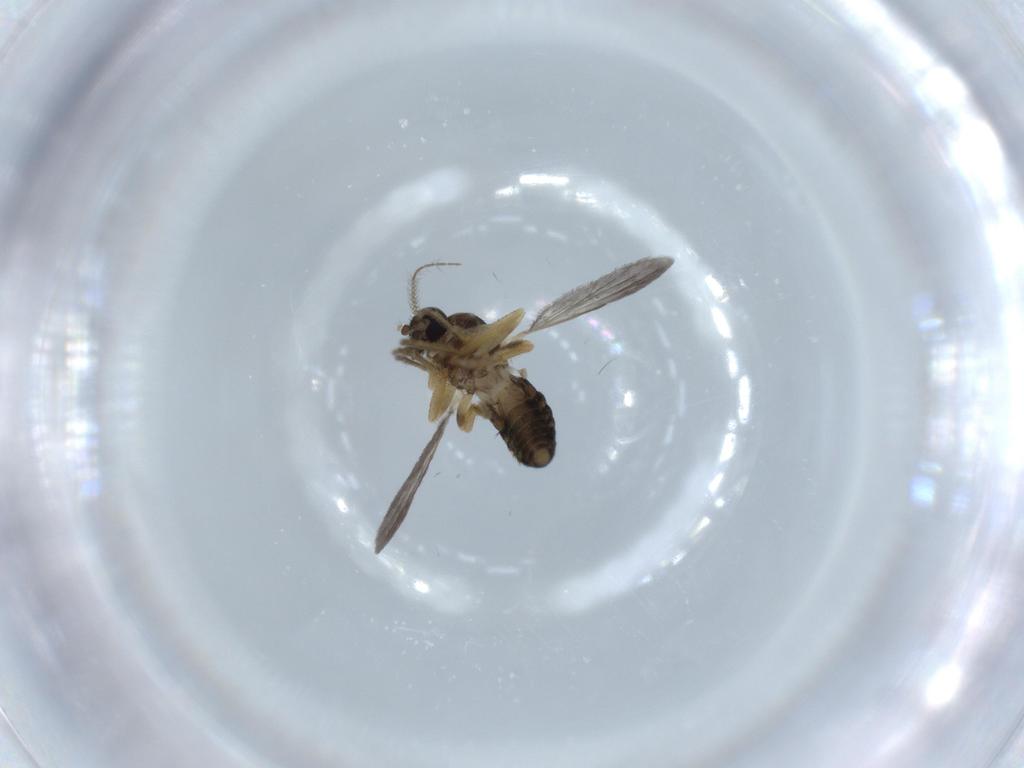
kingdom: Animalia
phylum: Arthropoda
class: Insecta
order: Diptera
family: Ceratopogonidae
